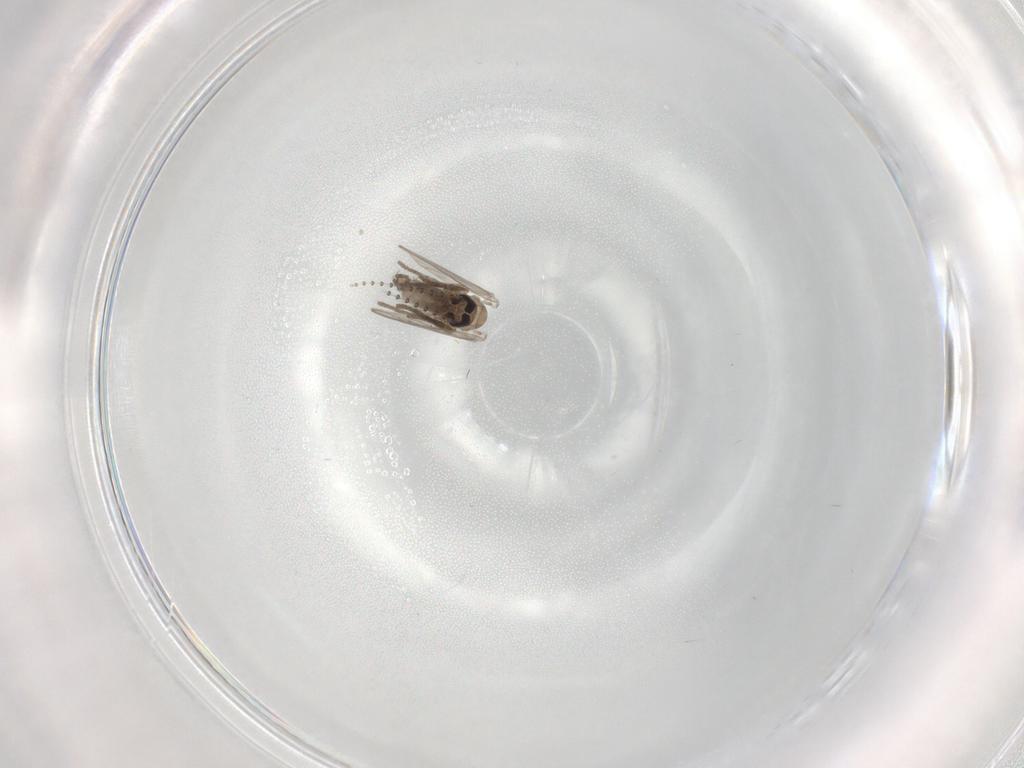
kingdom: Animalia
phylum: Arthropoda
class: Insecta
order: Diptera
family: Psychodidae
